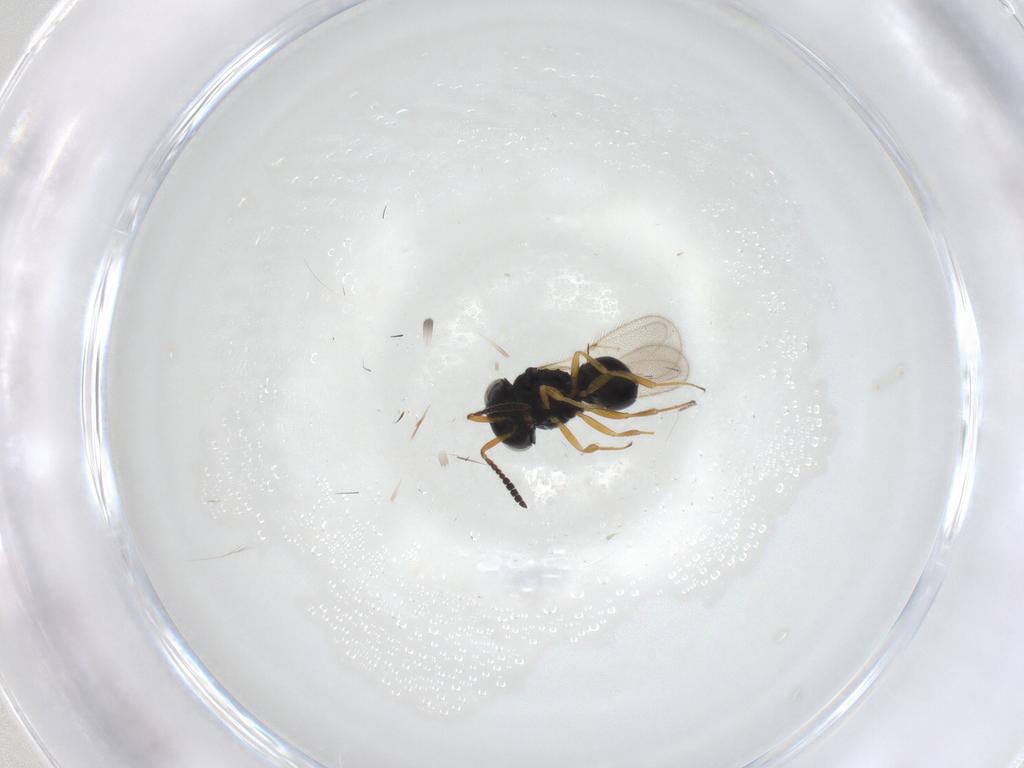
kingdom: Animalia
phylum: Arthropoda
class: Insecta
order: Hymenoptera
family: Scelionidae
